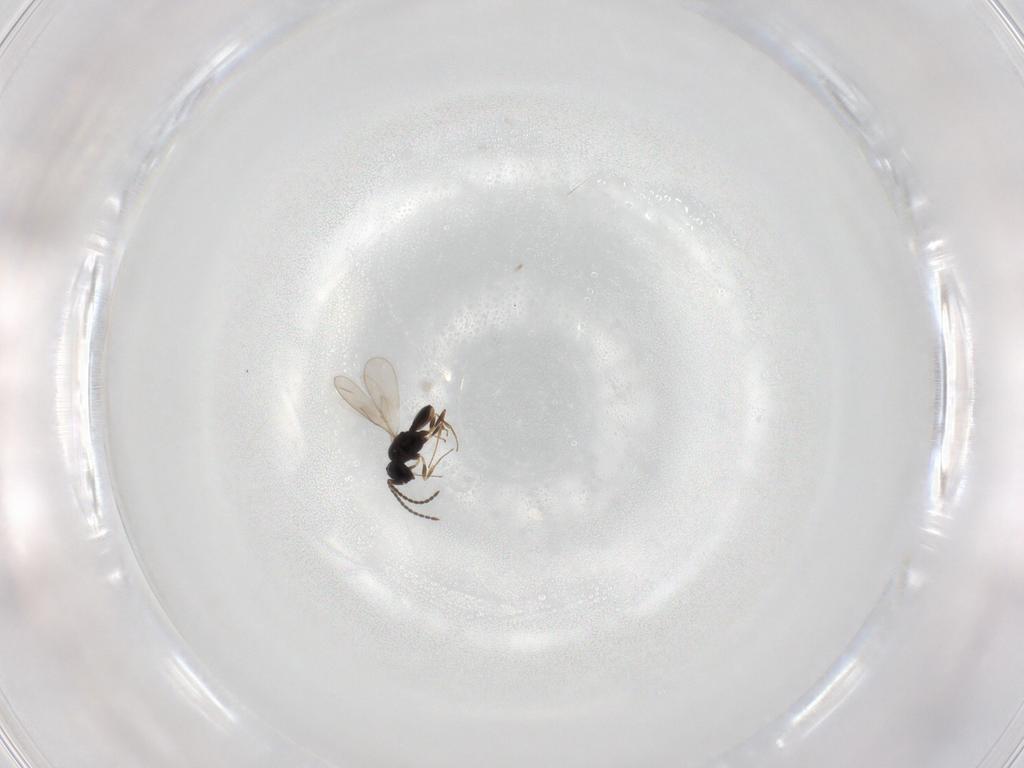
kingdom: Animalia
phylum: Arthropoda
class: Insecta
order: Hymenoptera
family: Scelionidae
